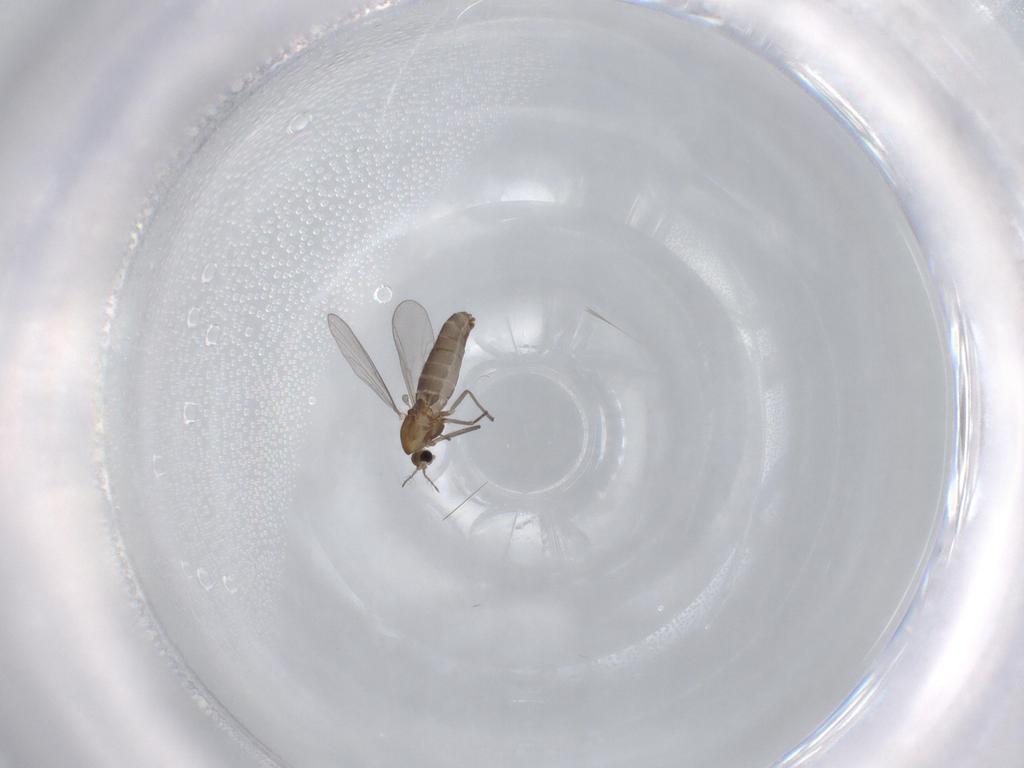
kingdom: Animalia
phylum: Arthropoda
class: Insecta
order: Diptera
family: Chironomidae
